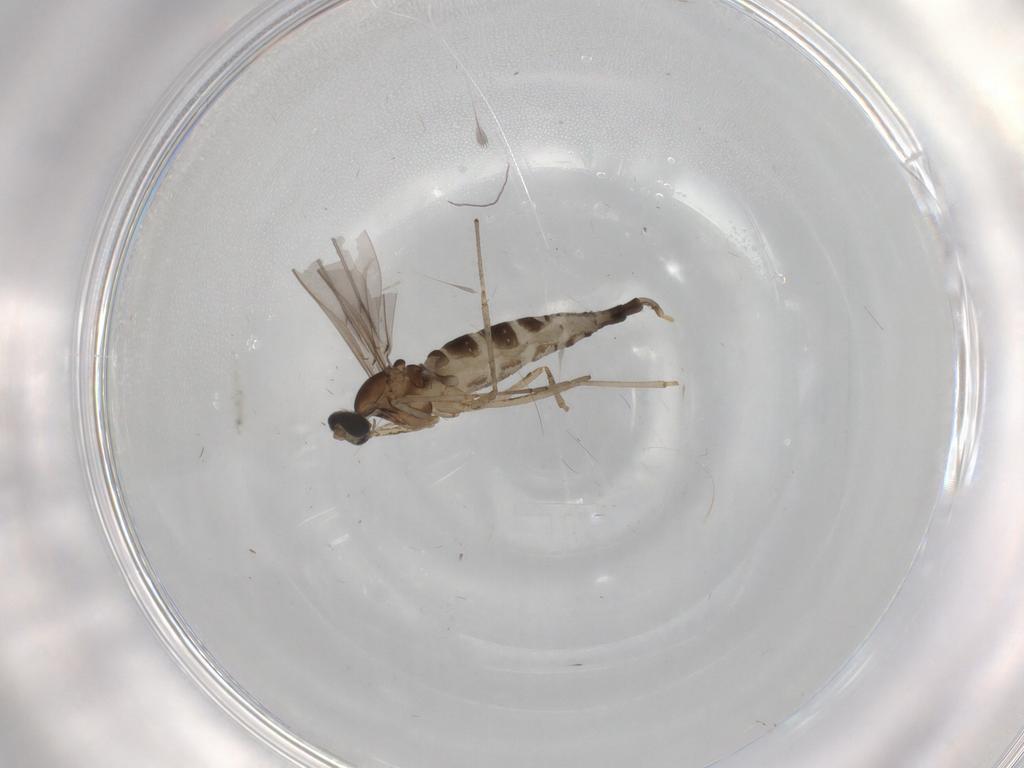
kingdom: Animalia
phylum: Arthropoda
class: Insecta
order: Diptera
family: Cecidomyiidae
